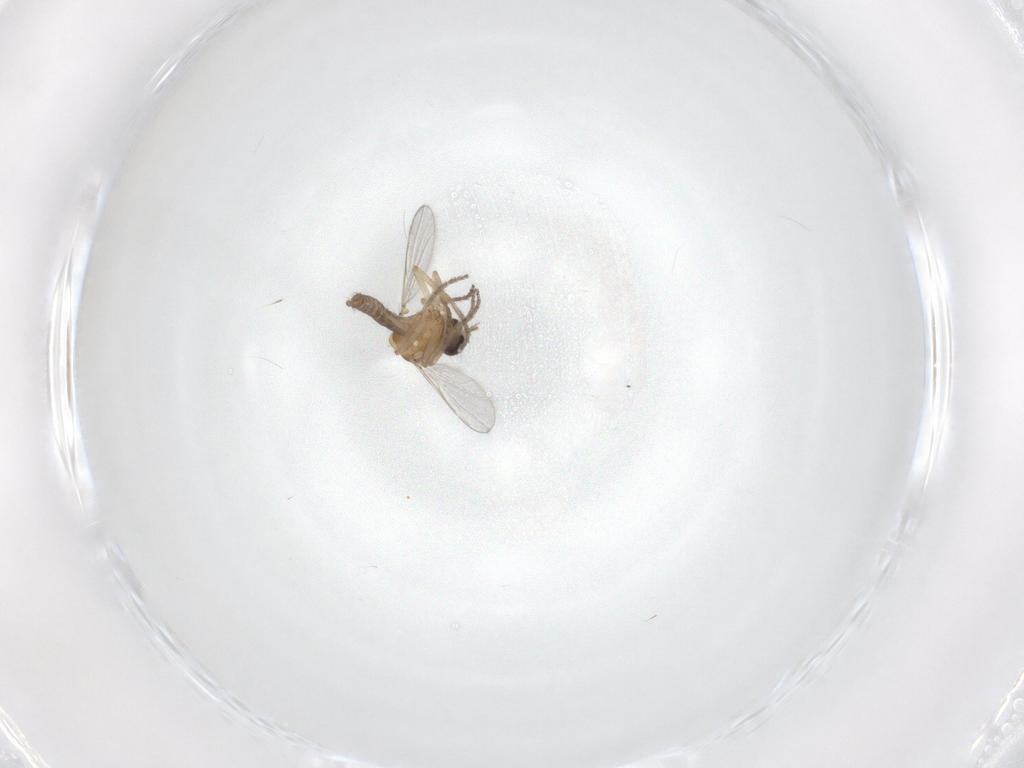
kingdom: Animalia
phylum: Arthropoda
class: Insecta
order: Diptera
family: Ceratopogonidae
